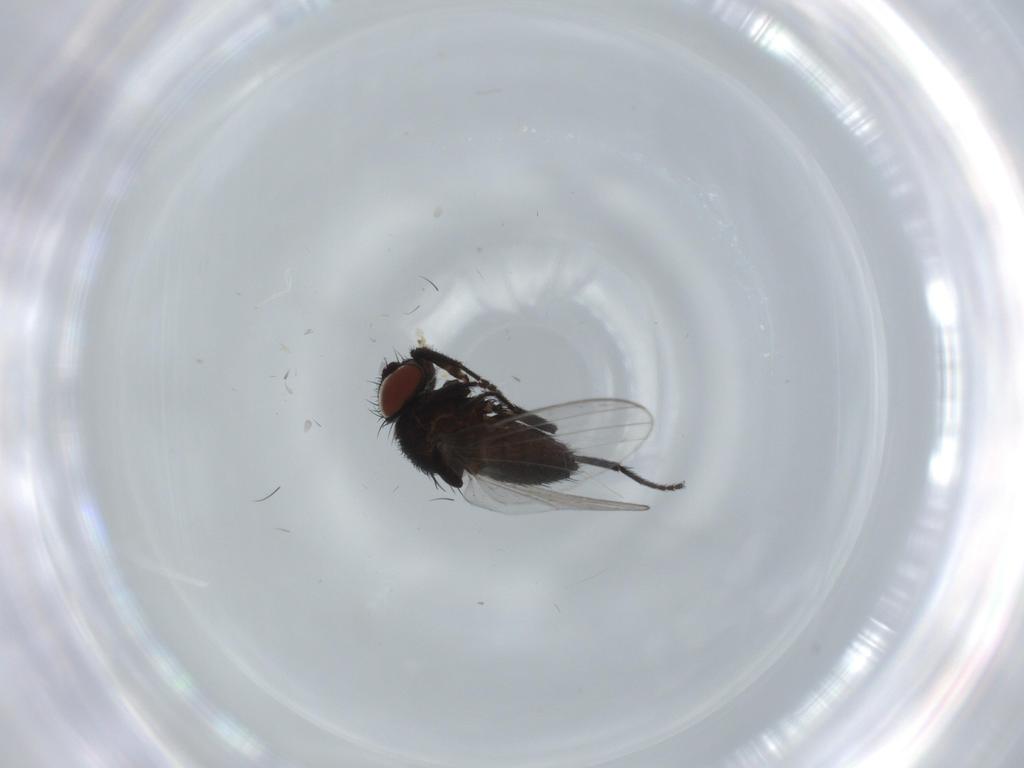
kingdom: Animalia
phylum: Arthropoda
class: Insecta
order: Diptera
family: Milichiidae
